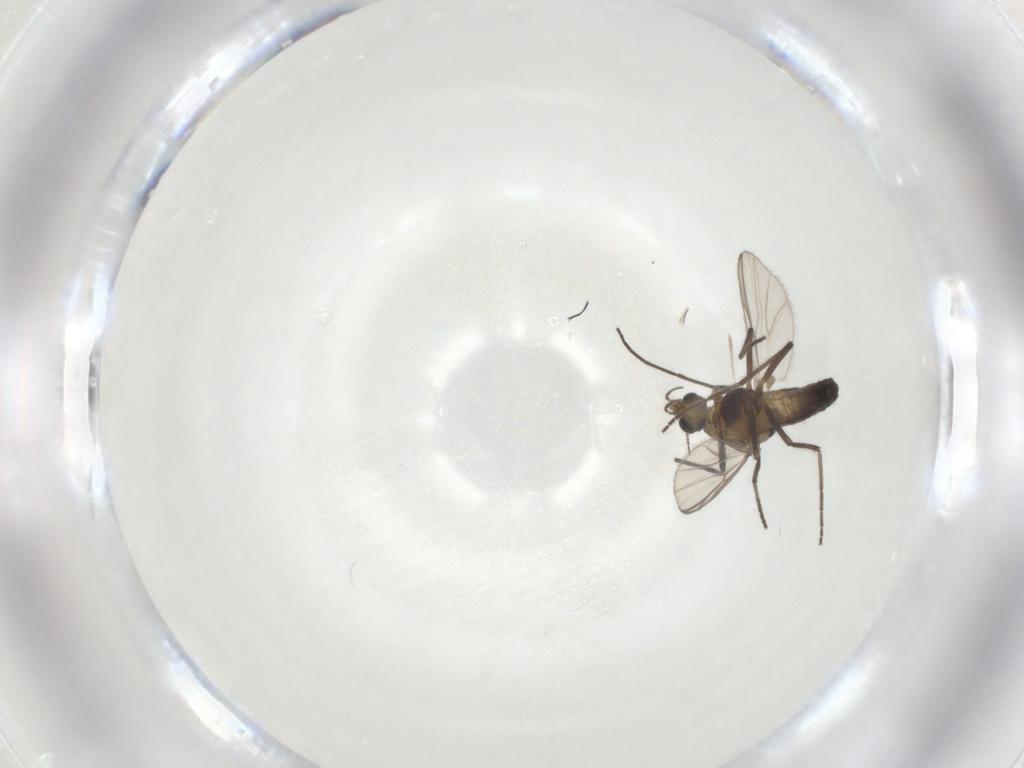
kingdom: Animalia
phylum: Arthropoda
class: Insecta
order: Diptera
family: Chironomidae
